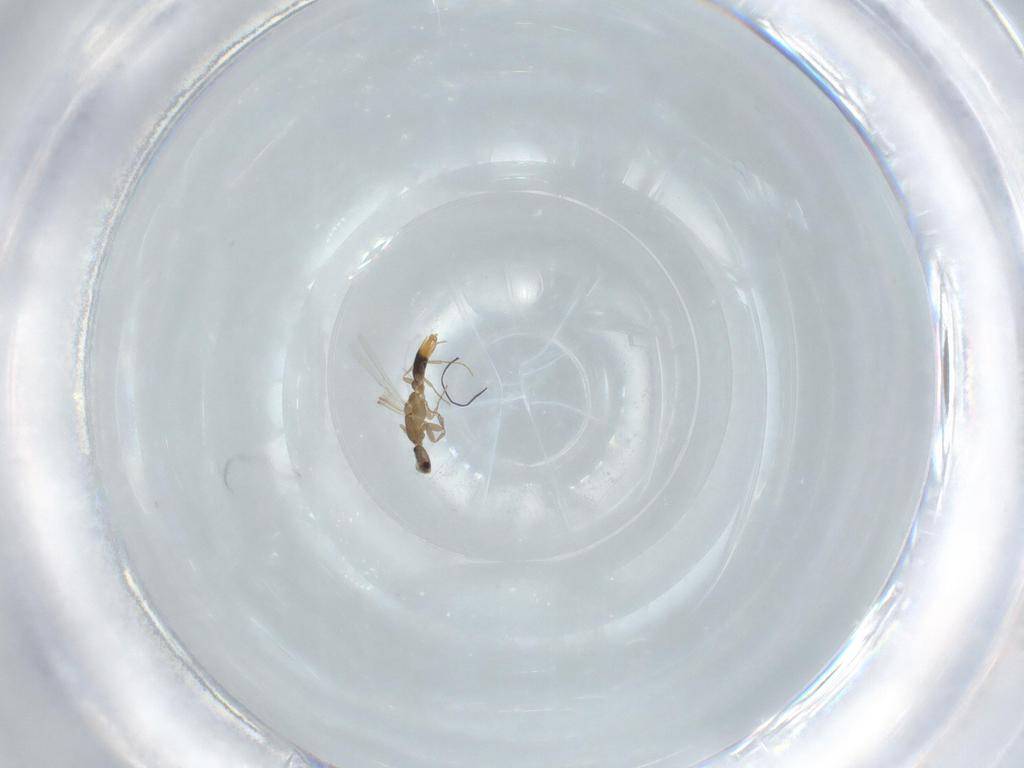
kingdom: Animalia
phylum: Arthropoda
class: Insecta
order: Hymenoptera
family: Formicidae
